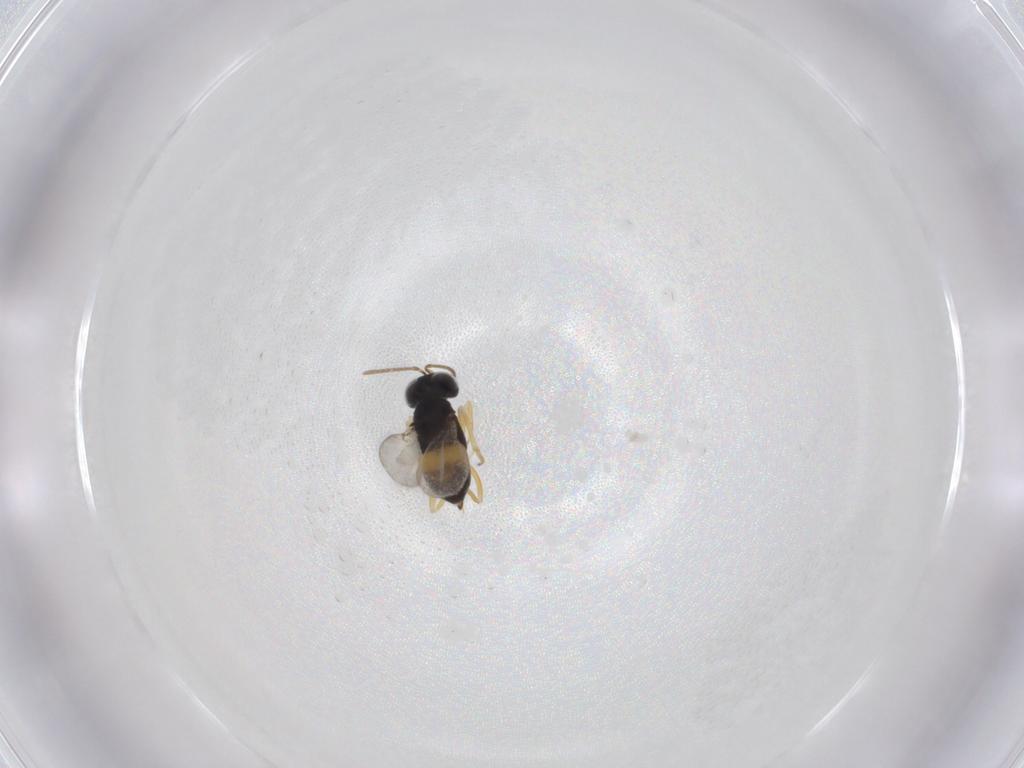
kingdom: Animalia
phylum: Arthropoda
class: Insecta
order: Hymenoptera
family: Encyrtidae
